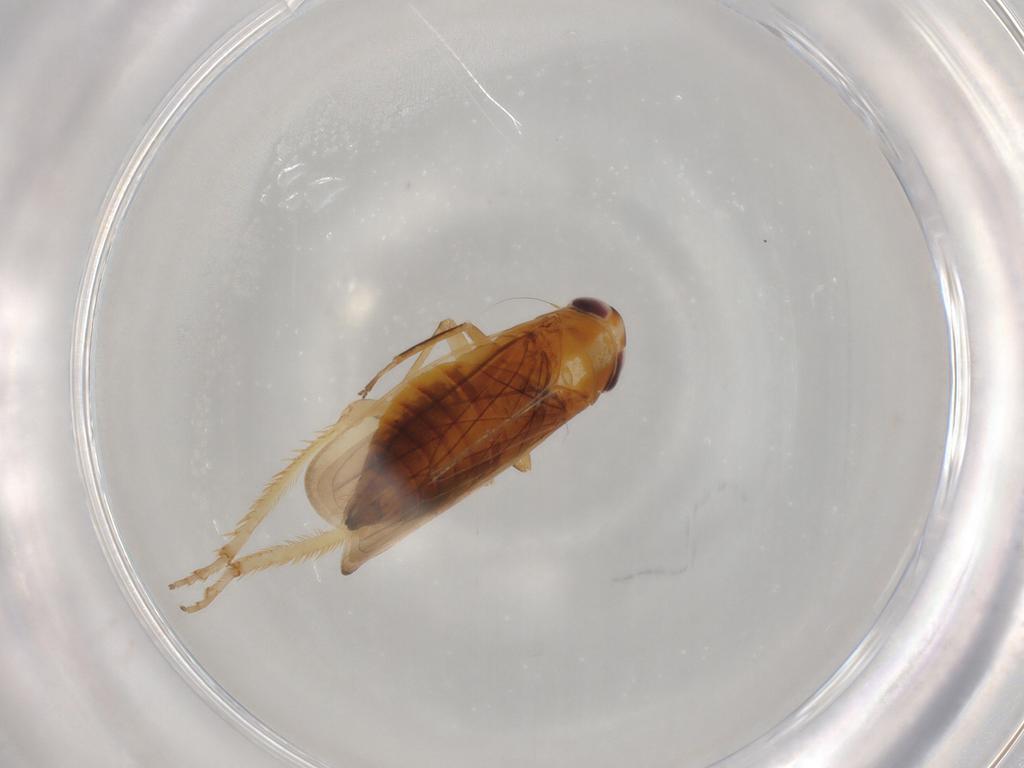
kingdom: Animalia
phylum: Arthropoda
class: Insecta
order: Hemiptera
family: Cicadellidae
